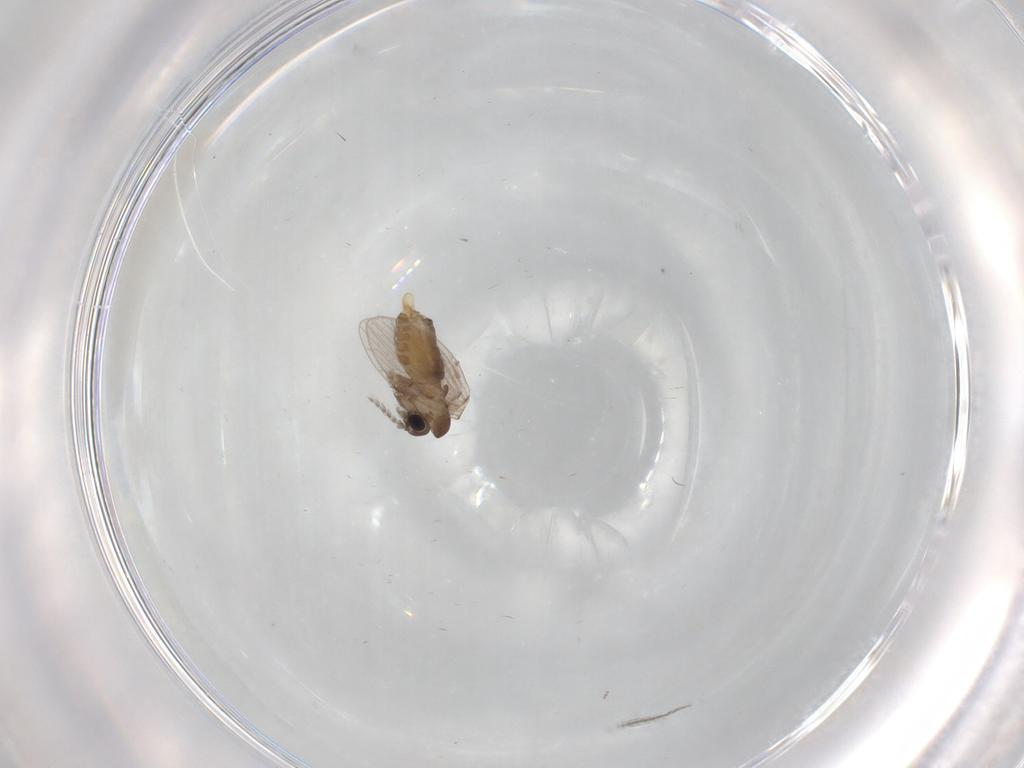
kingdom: Animalia
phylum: Arthropoda
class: Insecta
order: Diptera
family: Psychodidae
